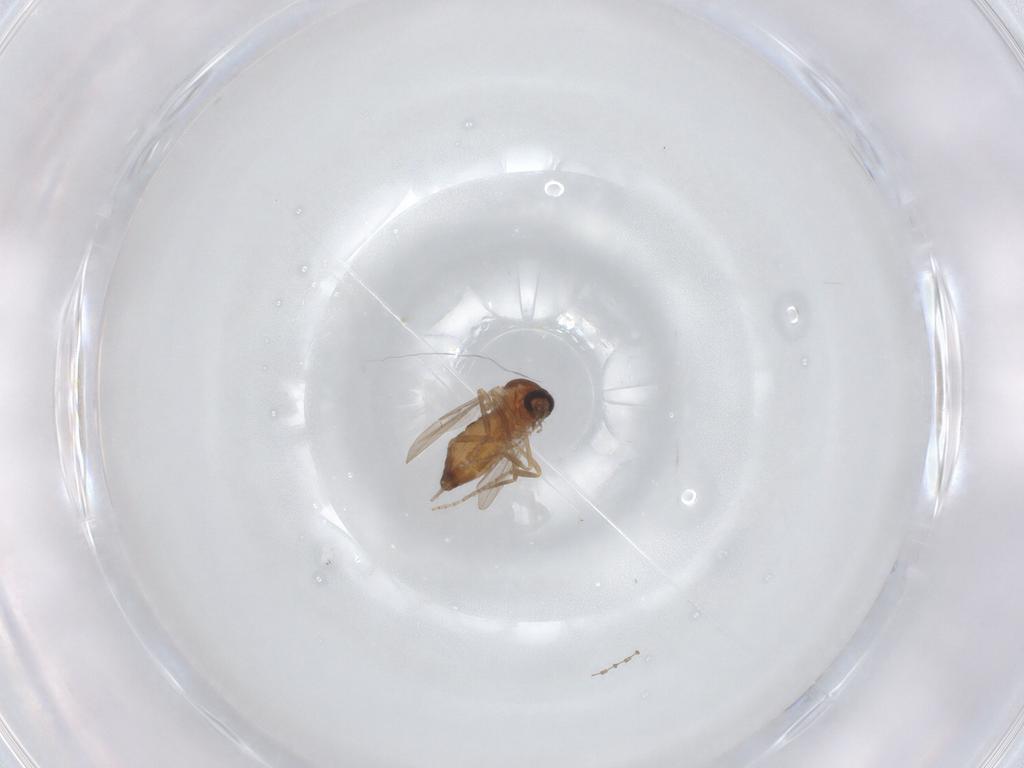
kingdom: Animalia
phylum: Arthropoda
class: Insecta
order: Diptera
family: Ceratopogonidae
